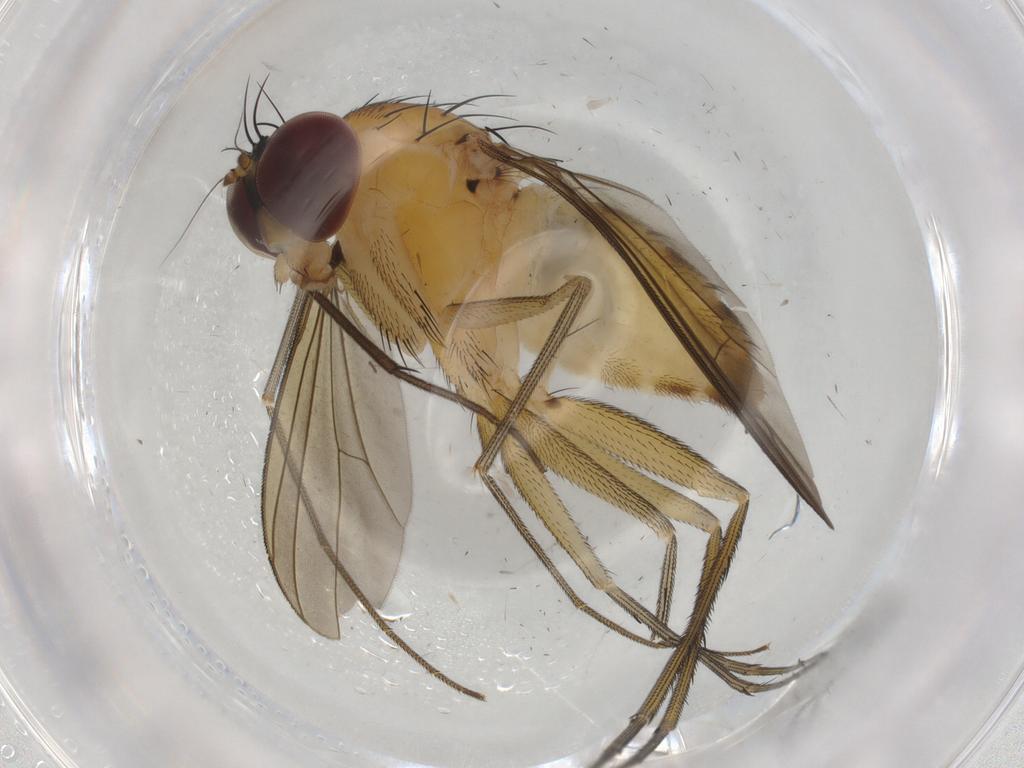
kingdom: Animalia
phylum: Arthropoda
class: Insecta
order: Diptera
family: Dolichopodidae
